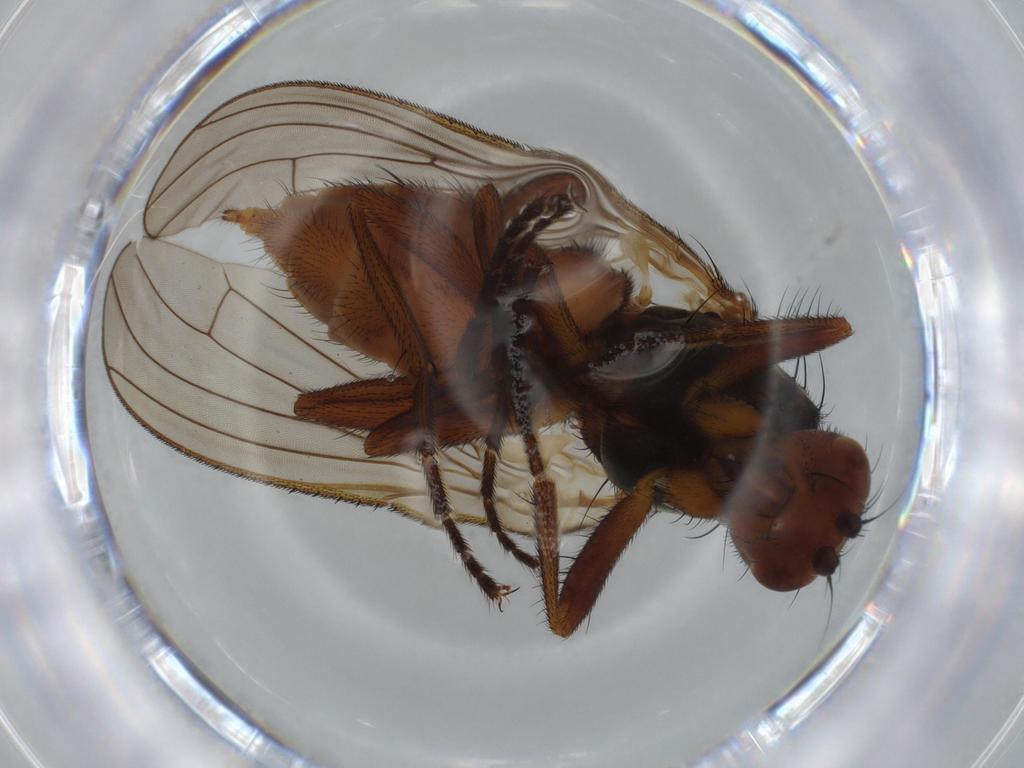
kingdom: Animalia
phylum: Arthropoda
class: Insecta
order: Diptera
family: Heleomyzidae
